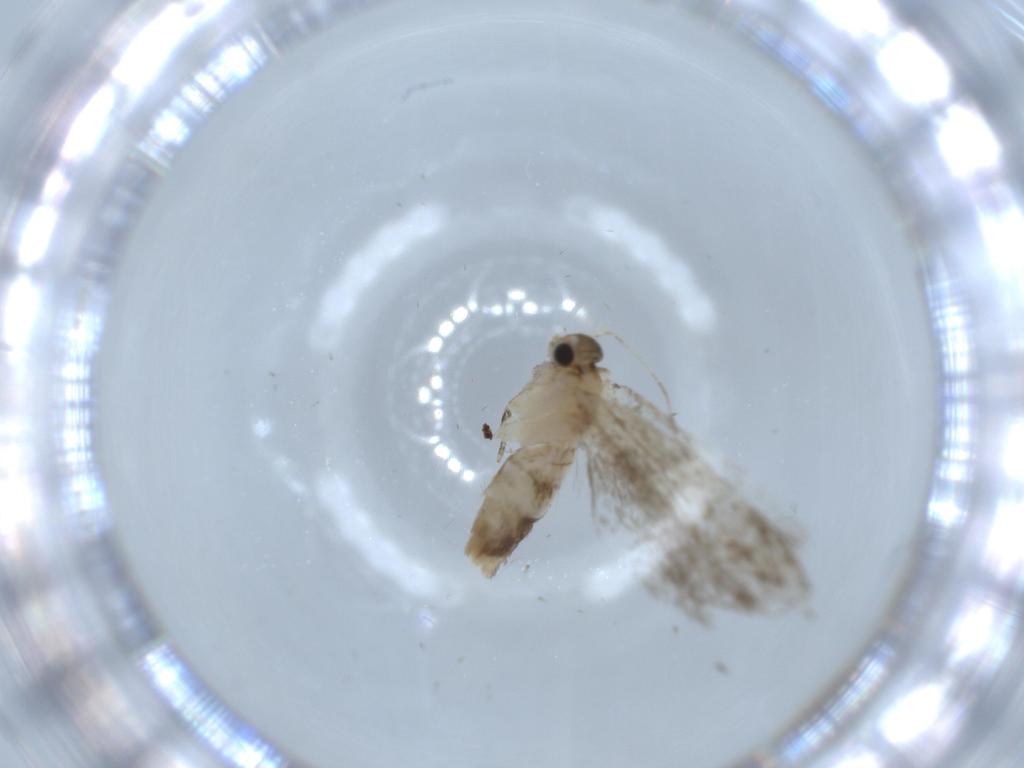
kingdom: Animalia
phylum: Arthropoda
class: Insecta
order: Lepidoptera
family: Tineidae
